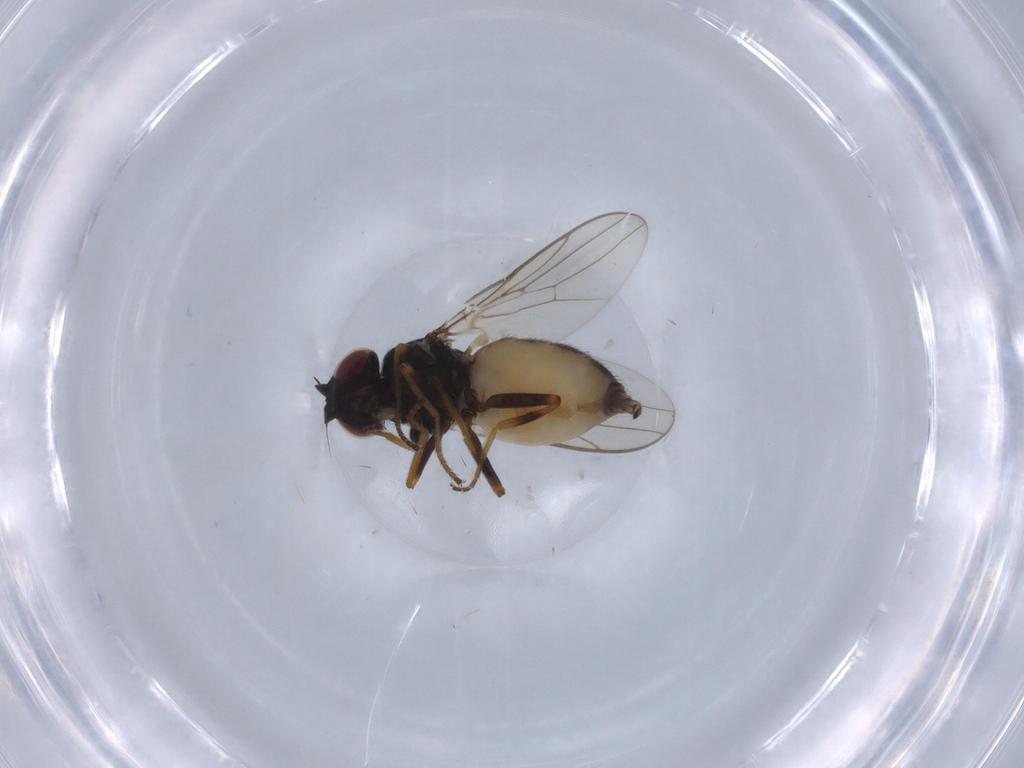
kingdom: Animalia
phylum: Arthropoda
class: Insecta
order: Diptera
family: Chloropidae
